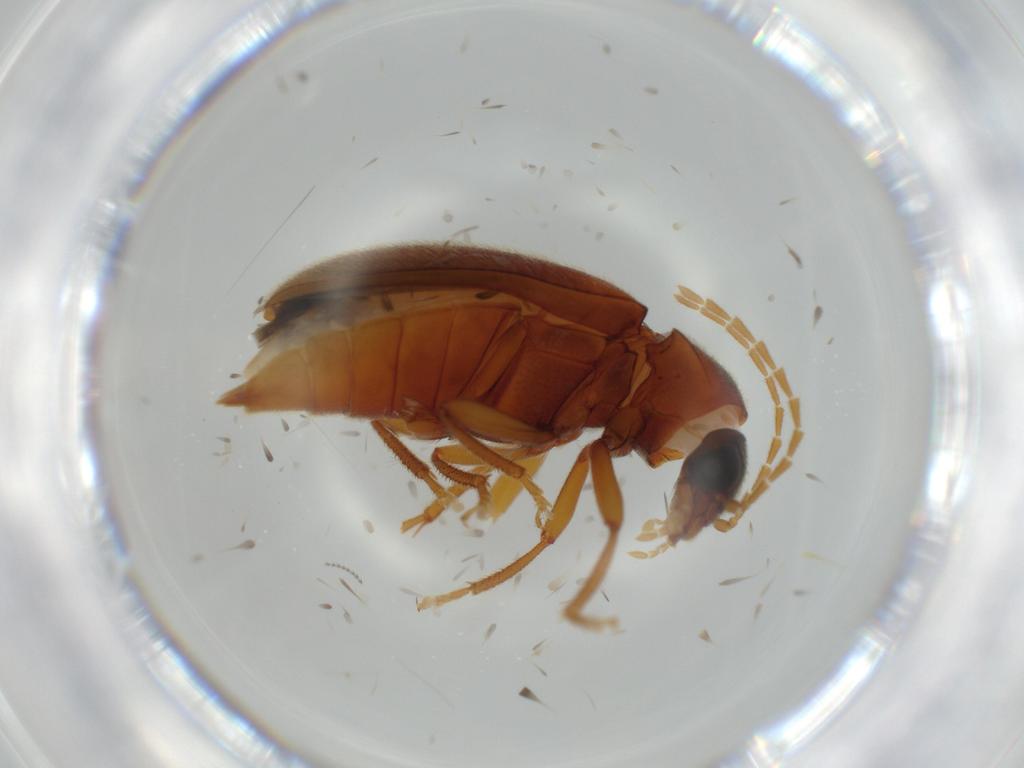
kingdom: Animalia
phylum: Arthropoda
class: Insecta
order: Coleoptera
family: Ptilodactylidae
